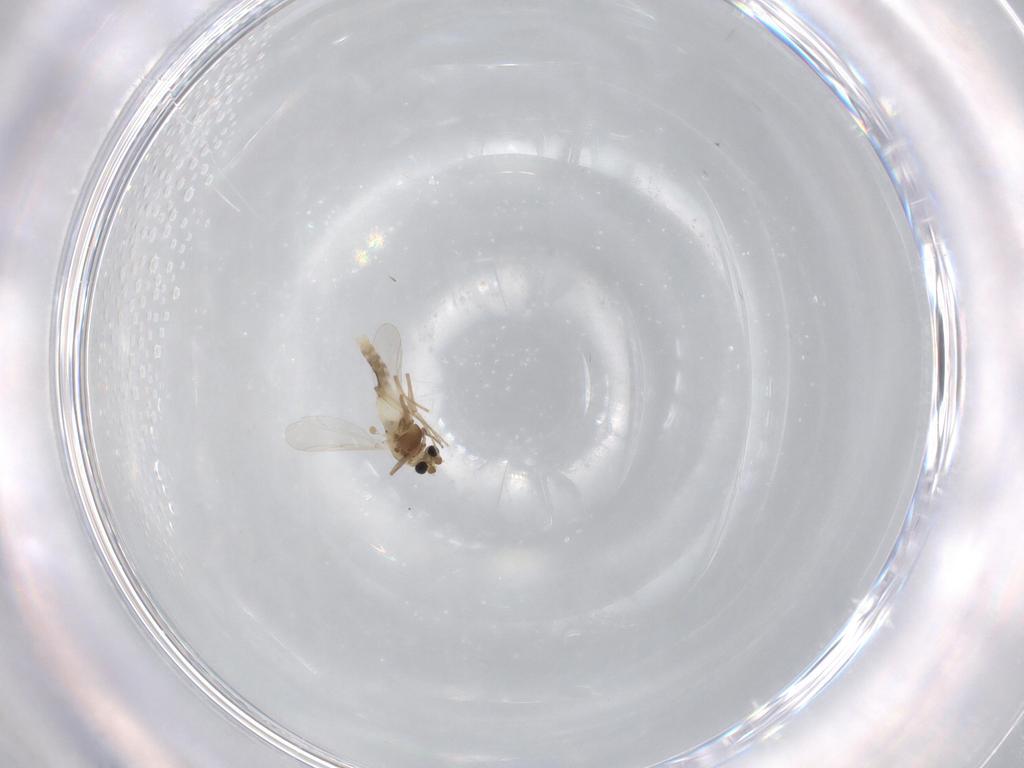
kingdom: Animalia
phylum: Arthropoda
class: Insecta
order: Diptera
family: Chironomidae
